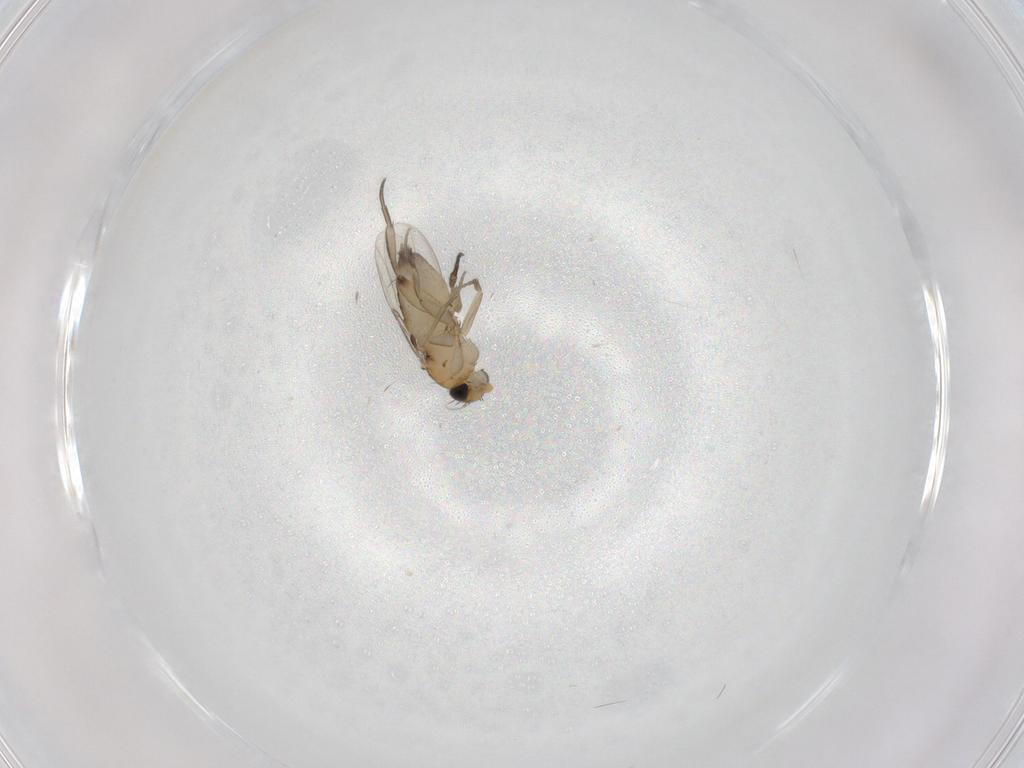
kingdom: Animalia
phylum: Arthropoda
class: Insecta
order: Diptera
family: Phoridae
